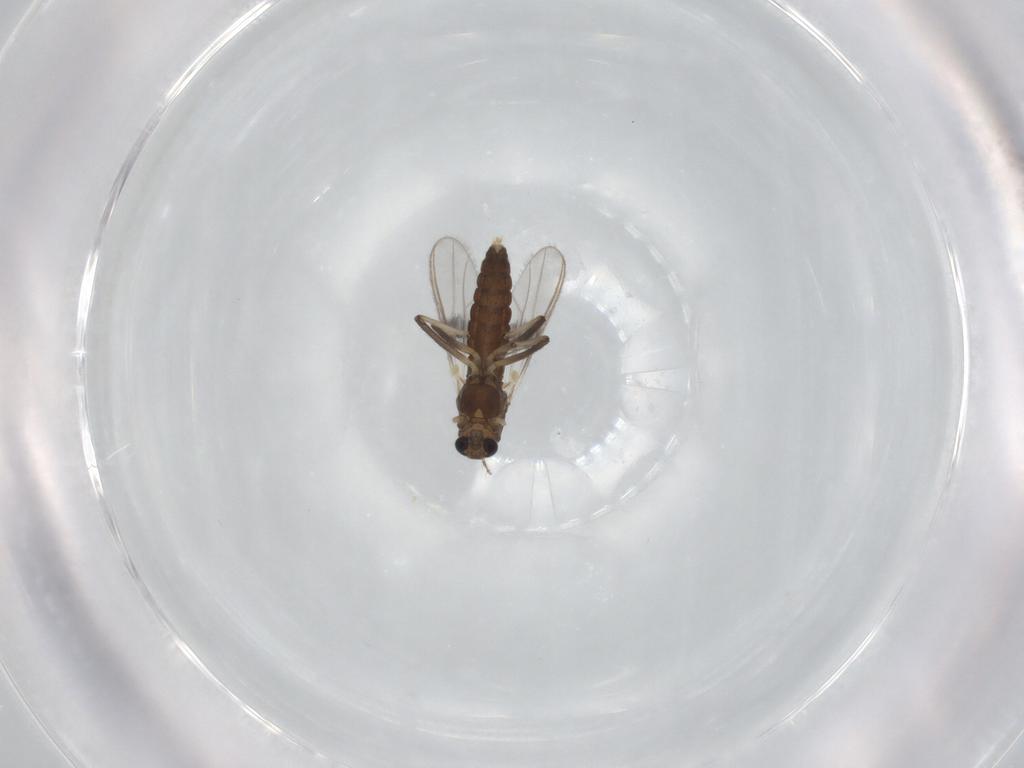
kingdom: Animalia
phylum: Arthropoda
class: Insecta
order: Diptera
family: Chironomidae
